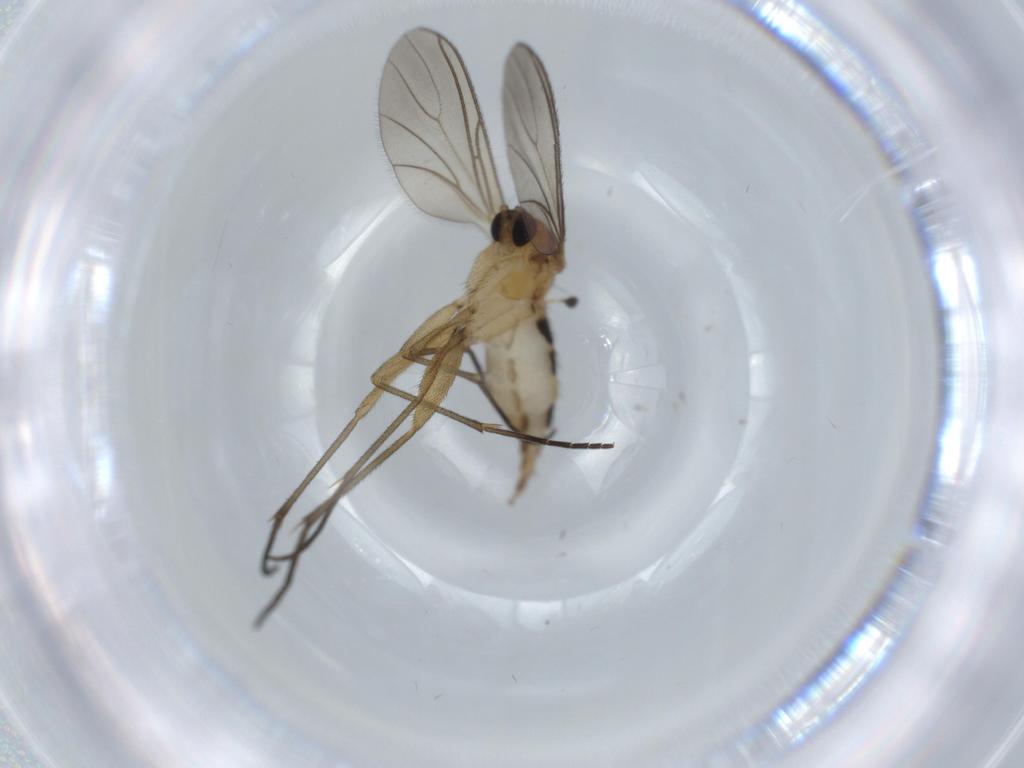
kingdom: Animalia
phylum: Arthropoda
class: Insecta
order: Diptera
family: Sciaridae
